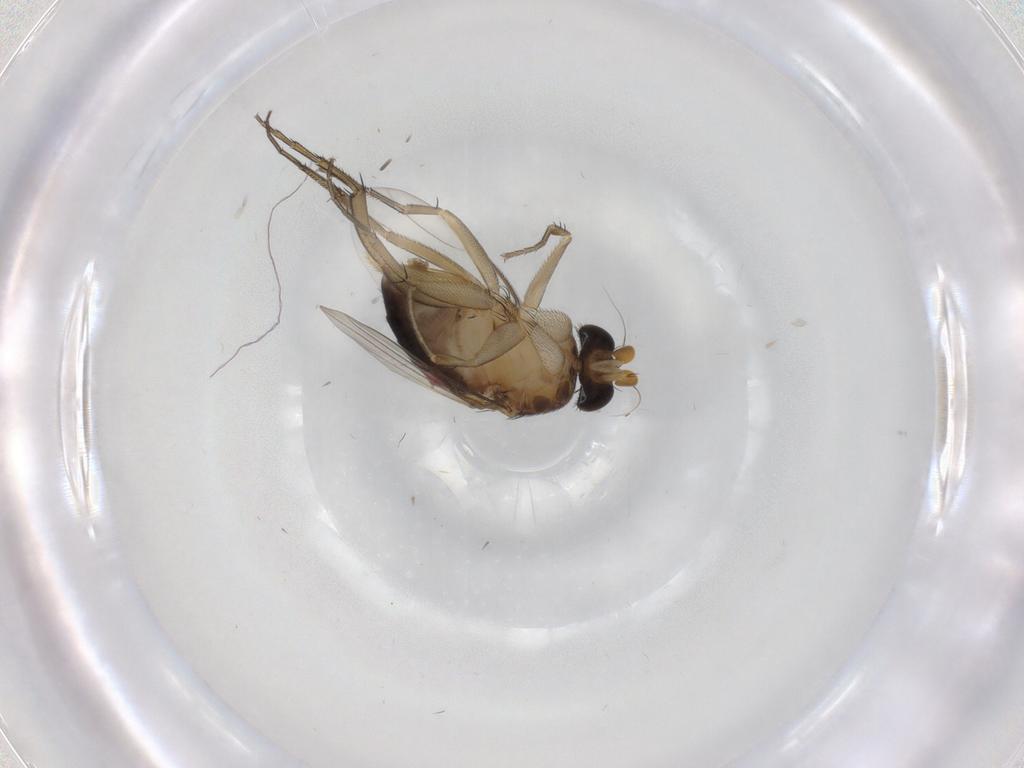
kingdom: Animalia
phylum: Arthropoda
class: Insecta
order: Diptera
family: Phoridae
